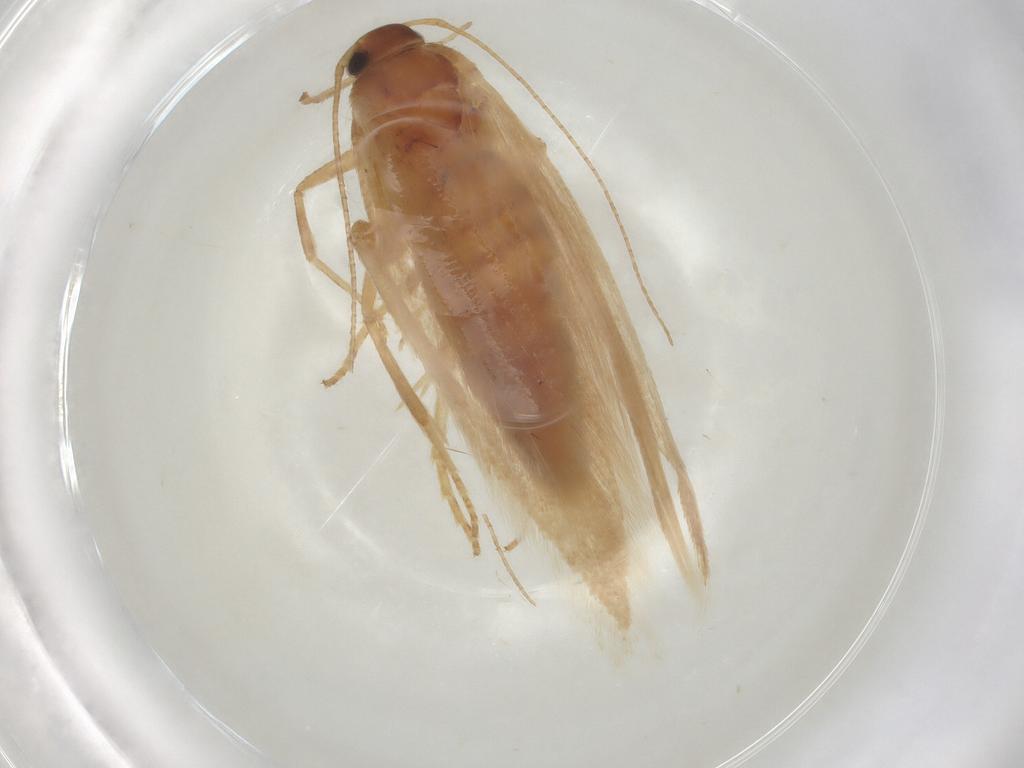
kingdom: Animalia
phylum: Arthropoda
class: Insecta
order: Lepidoptera
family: Gelechiidae
